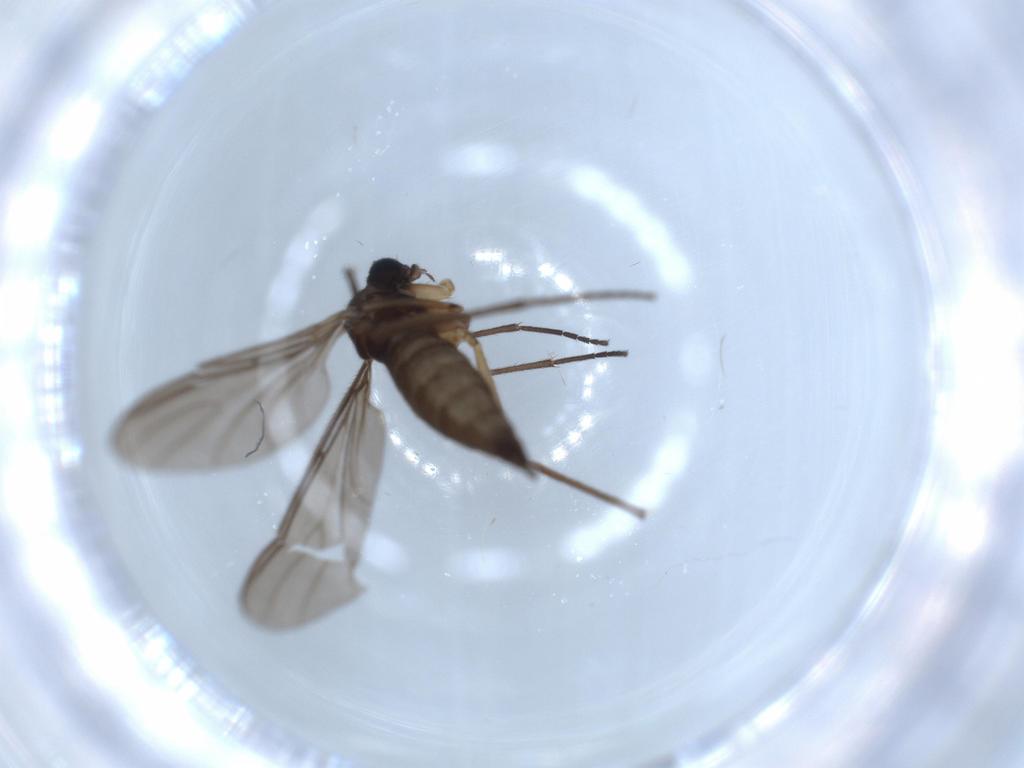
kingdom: Animalia
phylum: Arthropoda
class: Insecta
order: Diptera
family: Sciaridae
